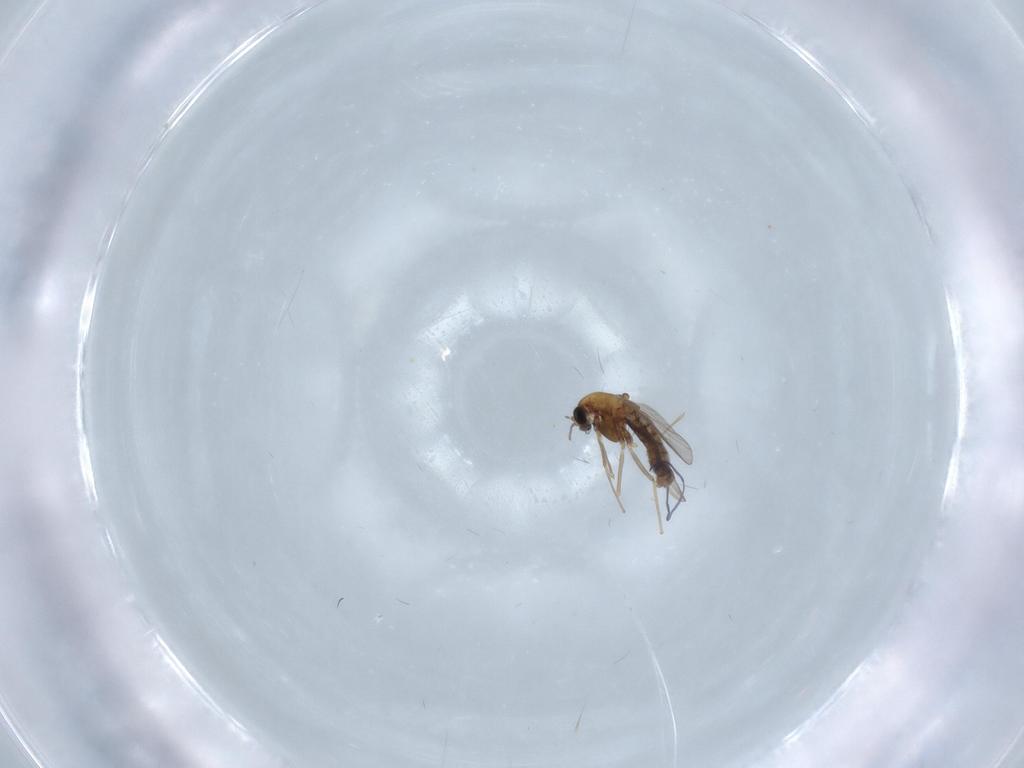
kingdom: Animalia
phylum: Arthropoda
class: Insecta
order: Diptera
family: Chironomidae
